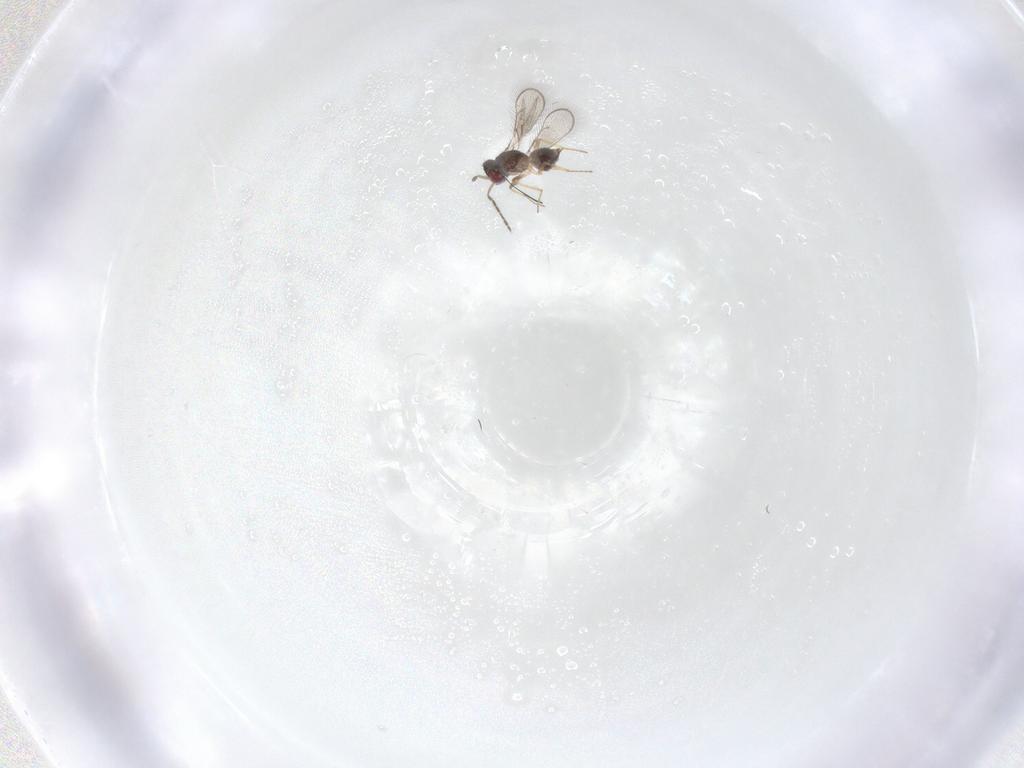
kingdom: Animalia
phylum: Arthropoda
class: Insecta
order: Hymenoptera
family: Eulophidae
